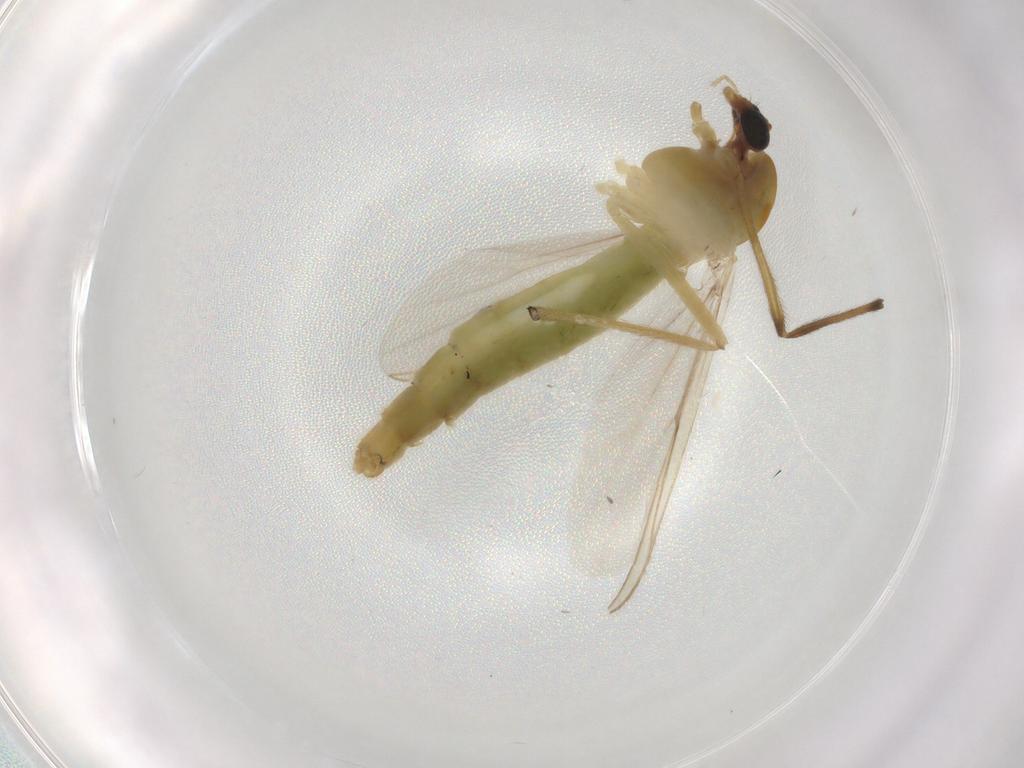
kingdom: Animalia
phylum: Arthropoda
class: Insecta
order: Diptera
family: Chironomidae
